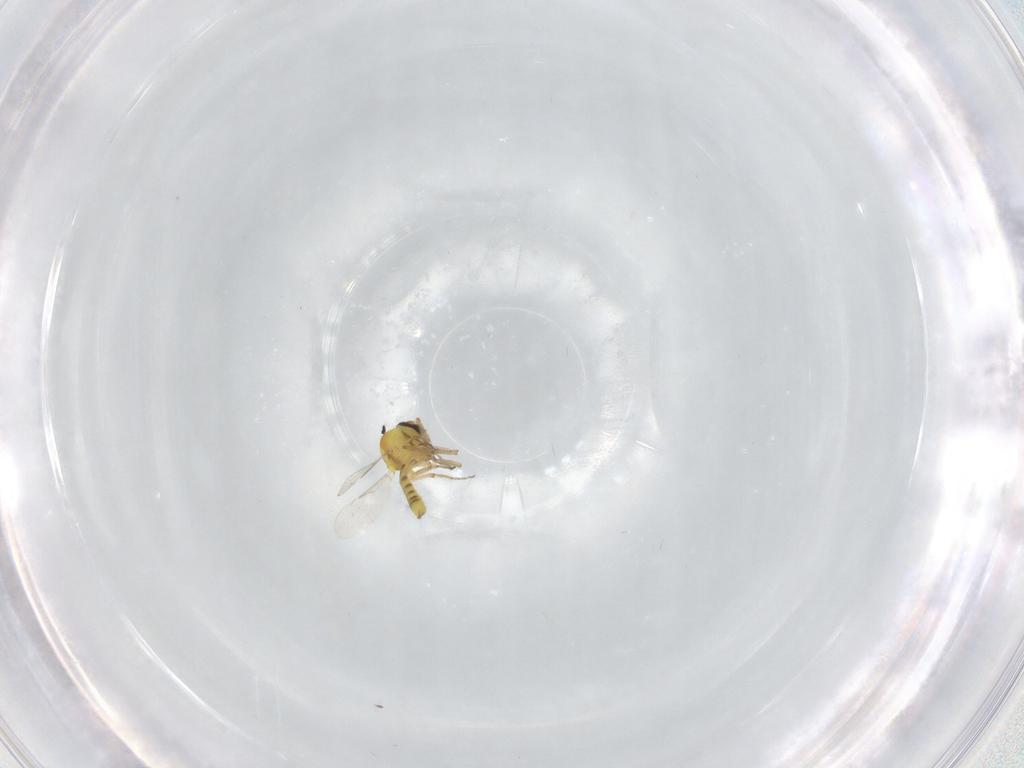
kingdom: Animalia
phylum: Arthropoda
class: Insecta
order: Diptera
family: Ceratopogonidae
